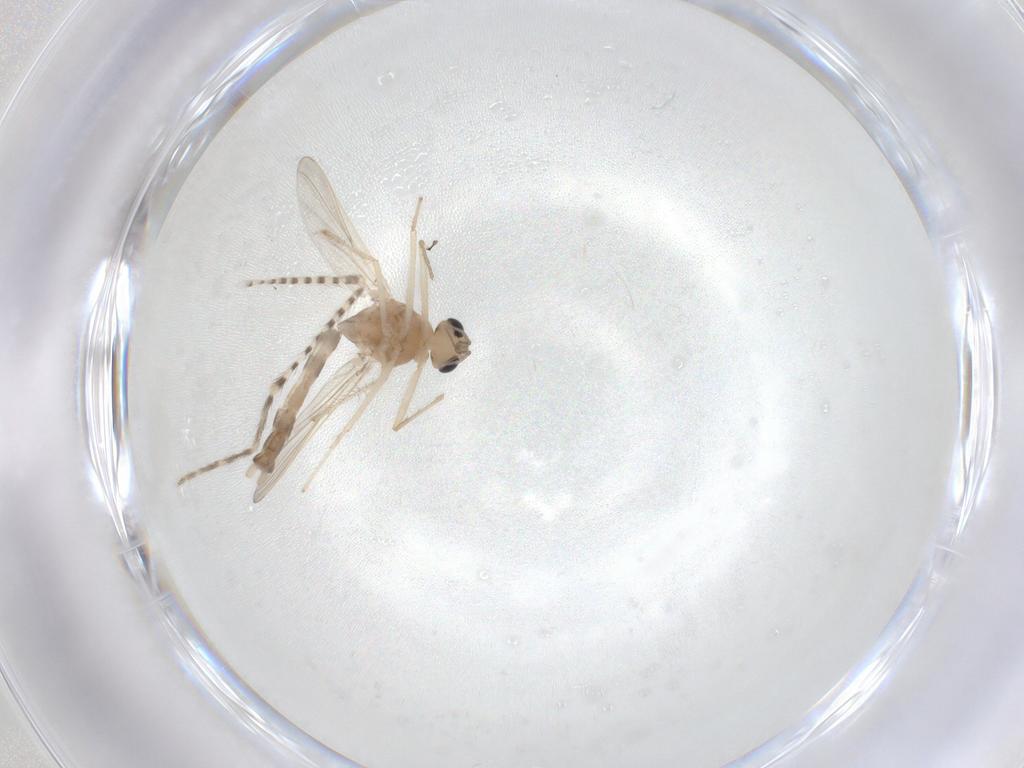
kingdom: Animalia
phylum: Arthropoda
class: Insecta
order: Diptera
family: Chironomidae
